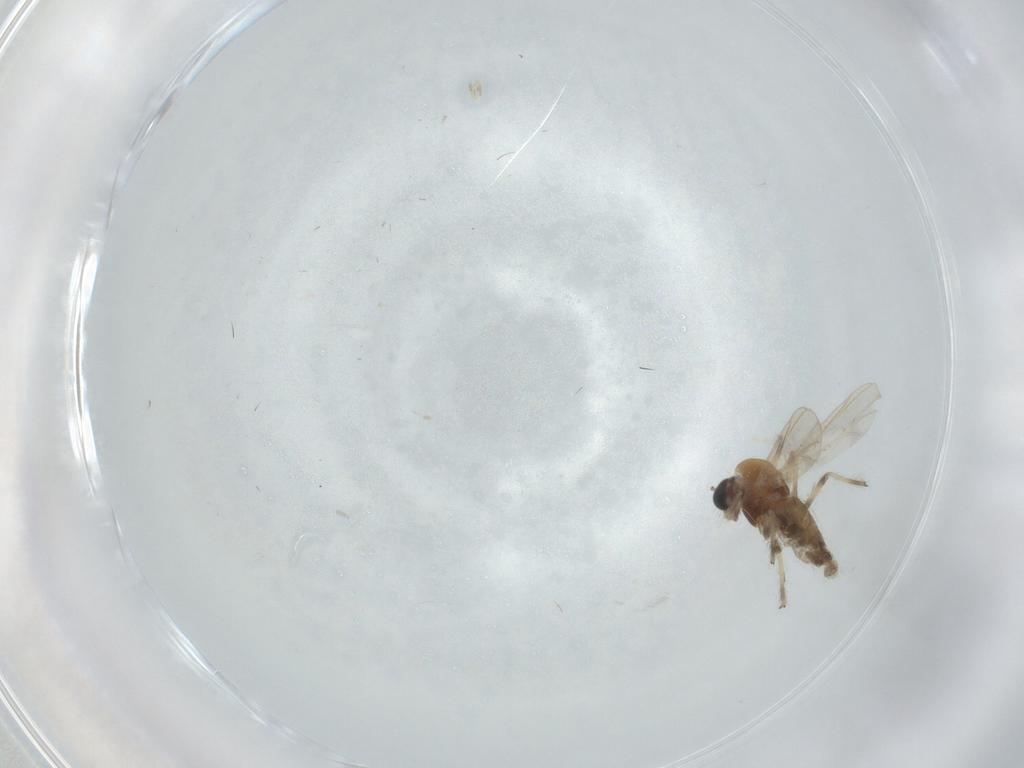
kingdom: Animalia
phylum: Arthropoda
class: Insecta
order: Diptera
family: Chironomidae
